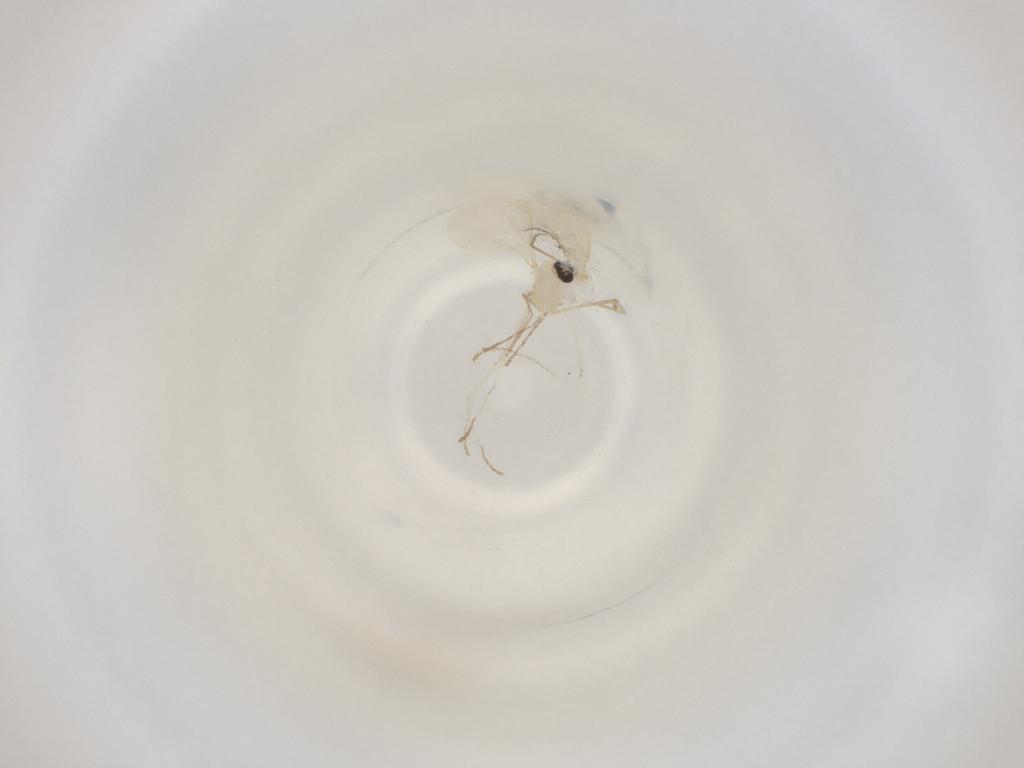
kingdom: Animalia
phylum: Arthropoda
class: Insecta
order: Diptera
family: Cecidomyiidae
